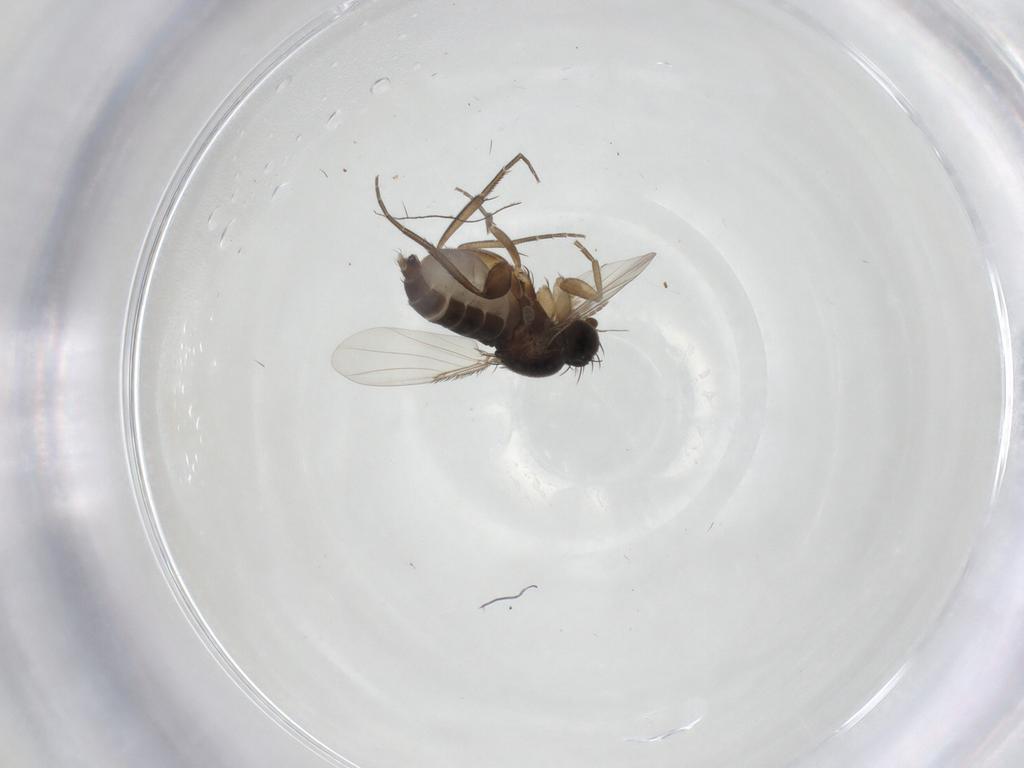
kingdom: Animalia
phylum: Arthropoda
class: Insecta
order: Diptera
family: Phoridae
